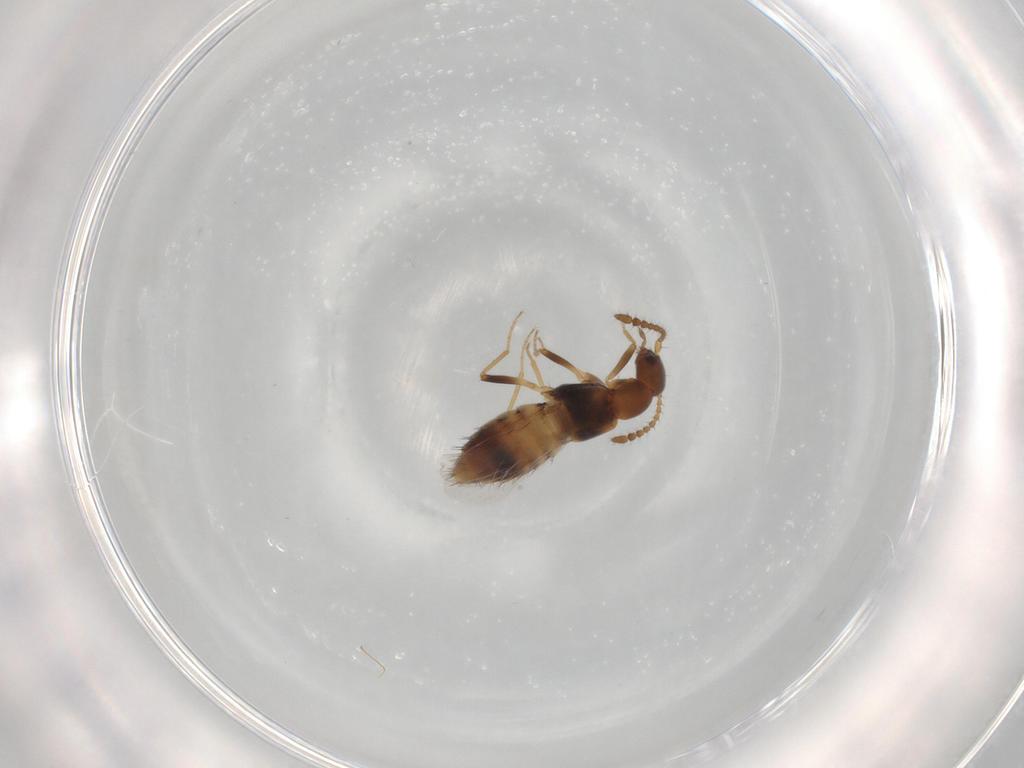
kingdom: Animalia
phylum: Arthropoda
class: Insecta
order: Coleoptera
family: Staphylinidae
